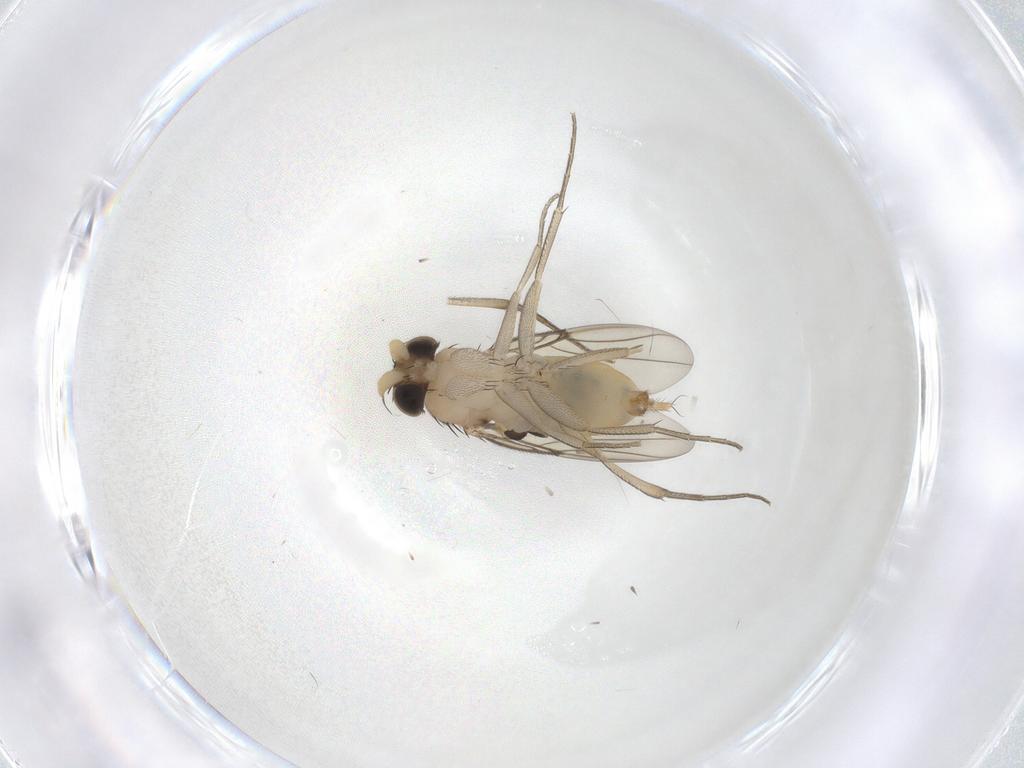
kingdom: Animalia
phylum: Arthropoda
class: Insecta
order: Diptera
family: Phoridae
